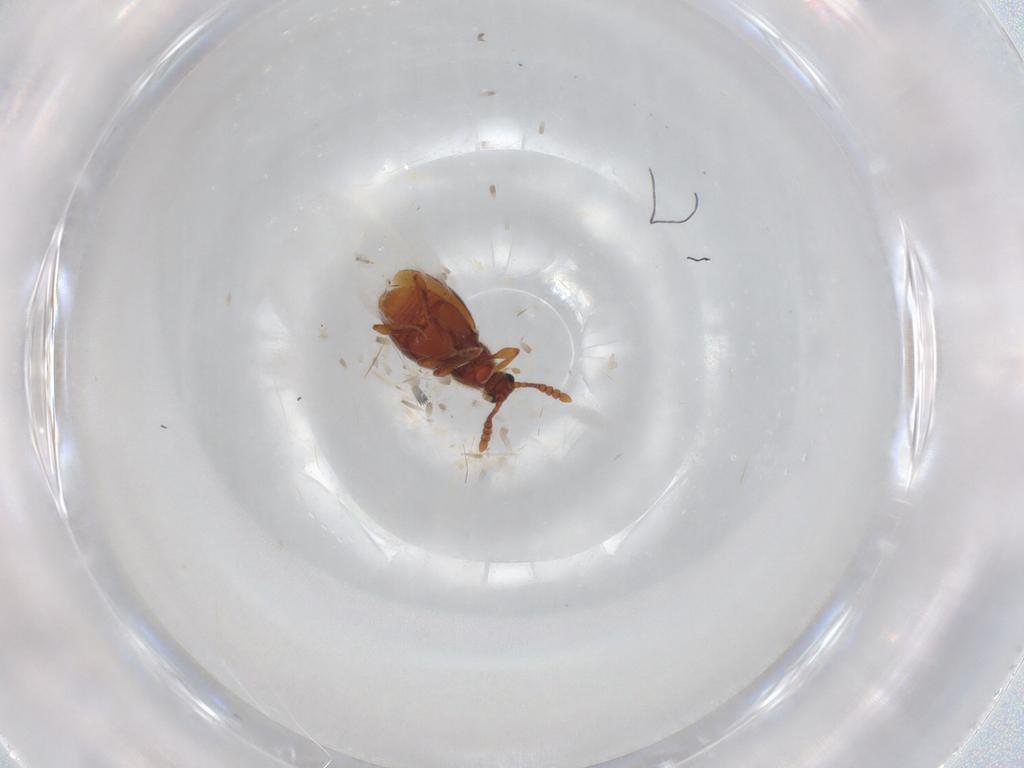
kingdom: Animalia
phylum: Arthropoda
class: Insecta
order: Coleoptera
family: Staphylinidae
